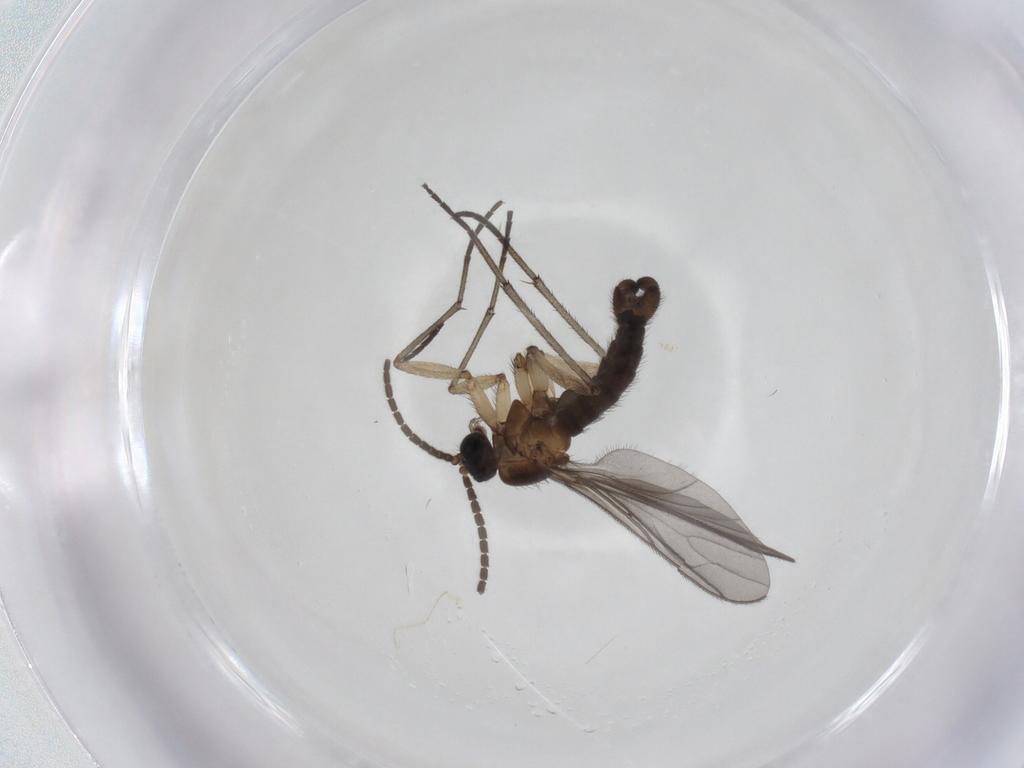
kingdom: Animalia
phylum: Arthropoda
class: Insecta
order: Diptera
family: Sciaridae
